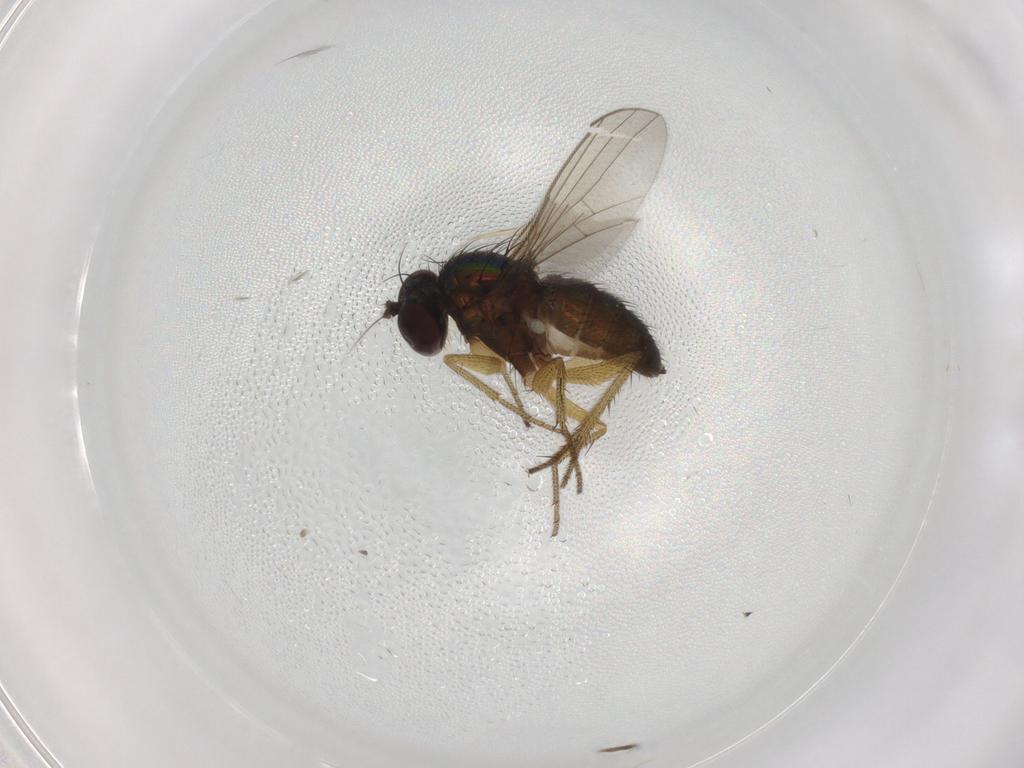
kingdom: Animalia
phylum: Arthropoda
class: Insecta
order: Diptera
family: Dolichopodidae
